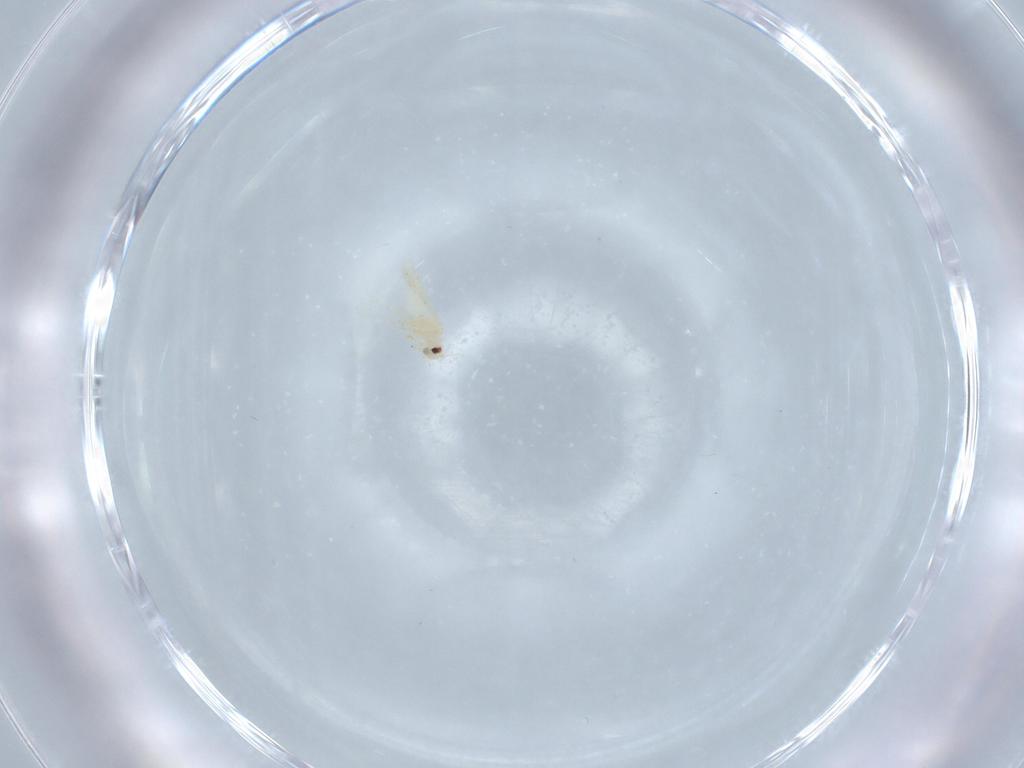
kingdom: Animalia
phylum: Arthropoda
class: Insecta
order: Hemiptera
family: Aleyrodidae
